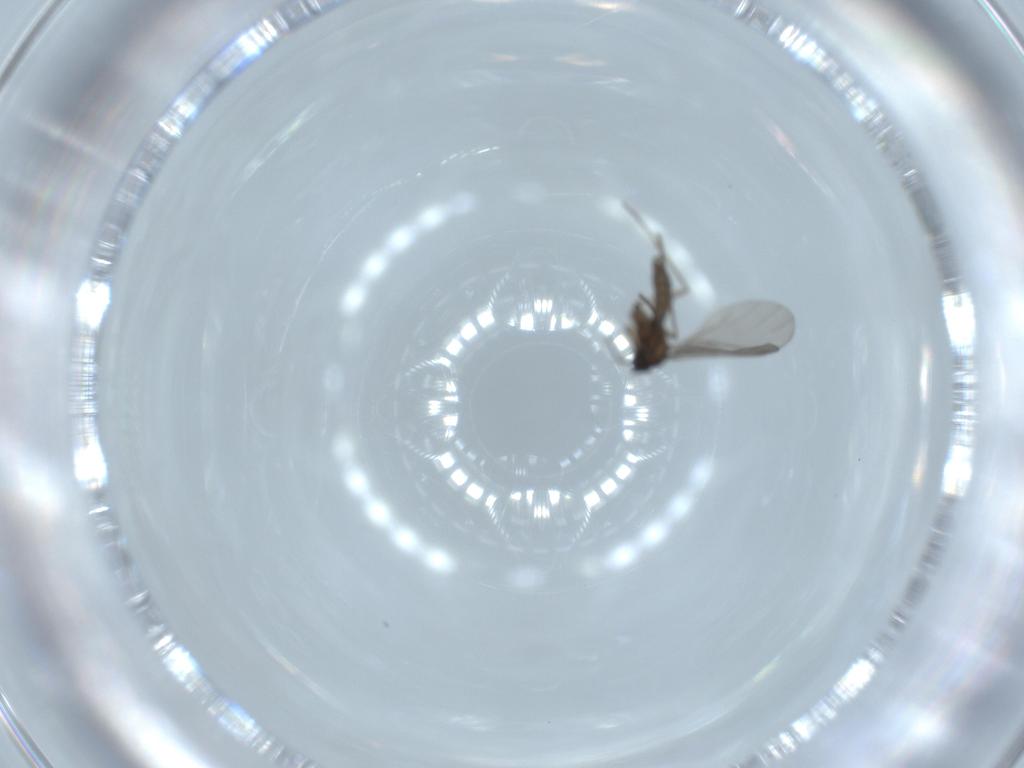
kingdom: Animalia
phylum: Arthropoda
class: Insecta
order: Diptera
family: Sciaridae
